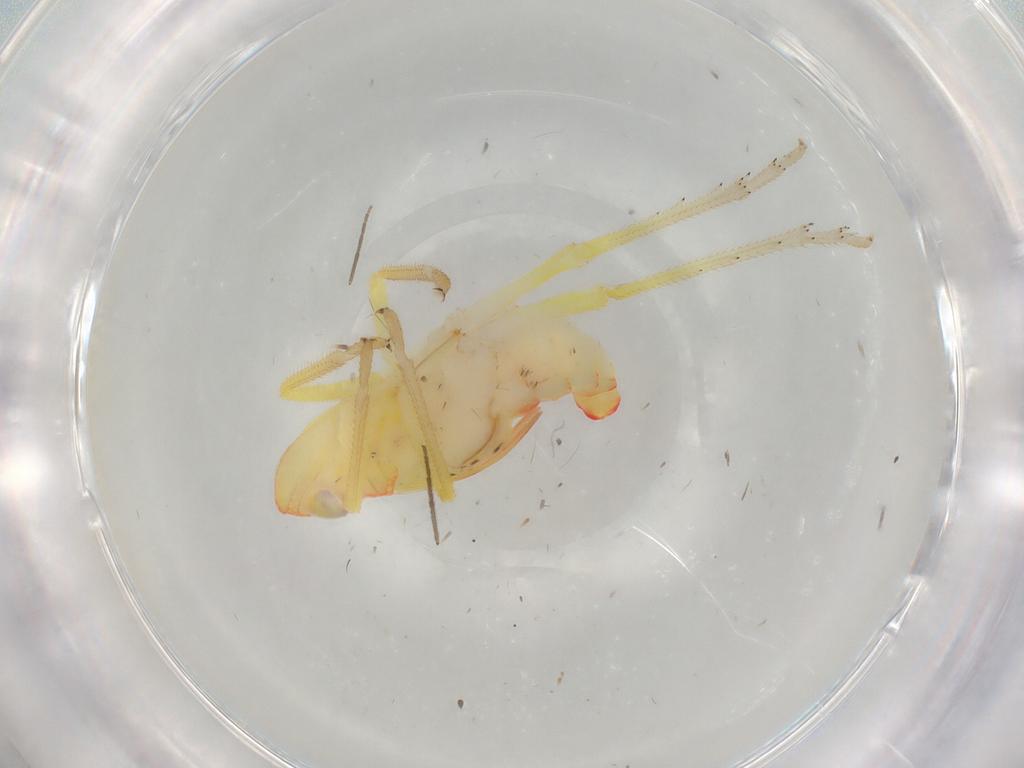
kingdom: Animalia
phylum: Arthropoda
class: Insecta
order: Hemiptera
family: Tropiduchidae
